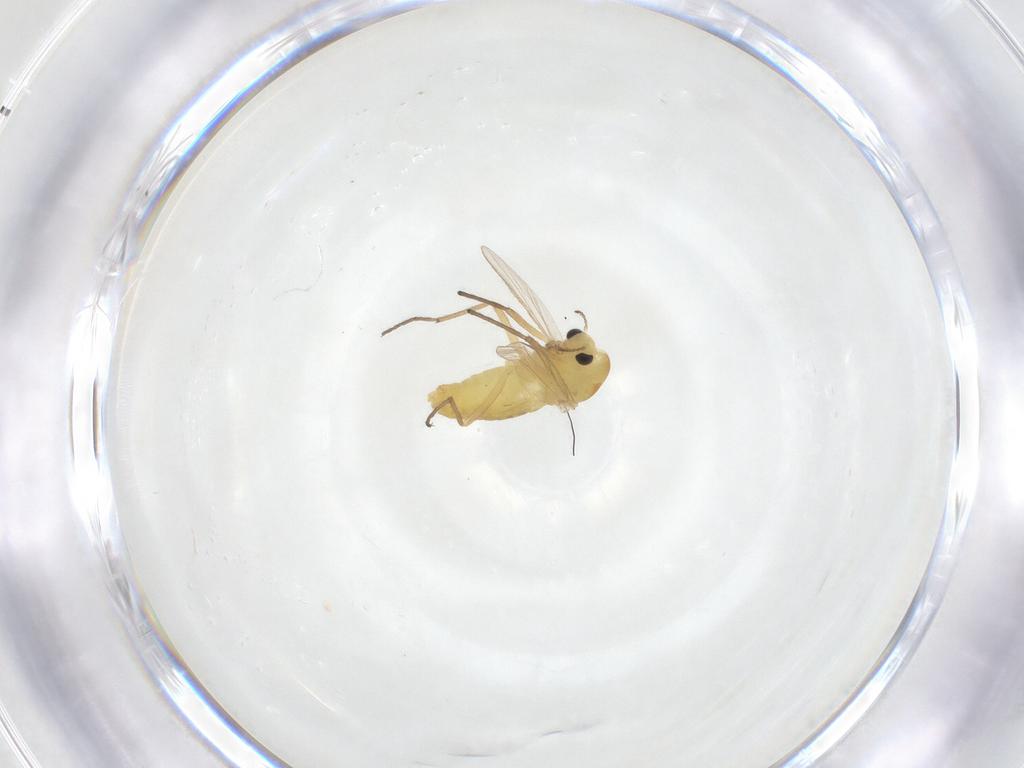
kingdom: Animalia
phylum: Arthropoda
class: Insecta
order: Diptera
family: Chironomidae
